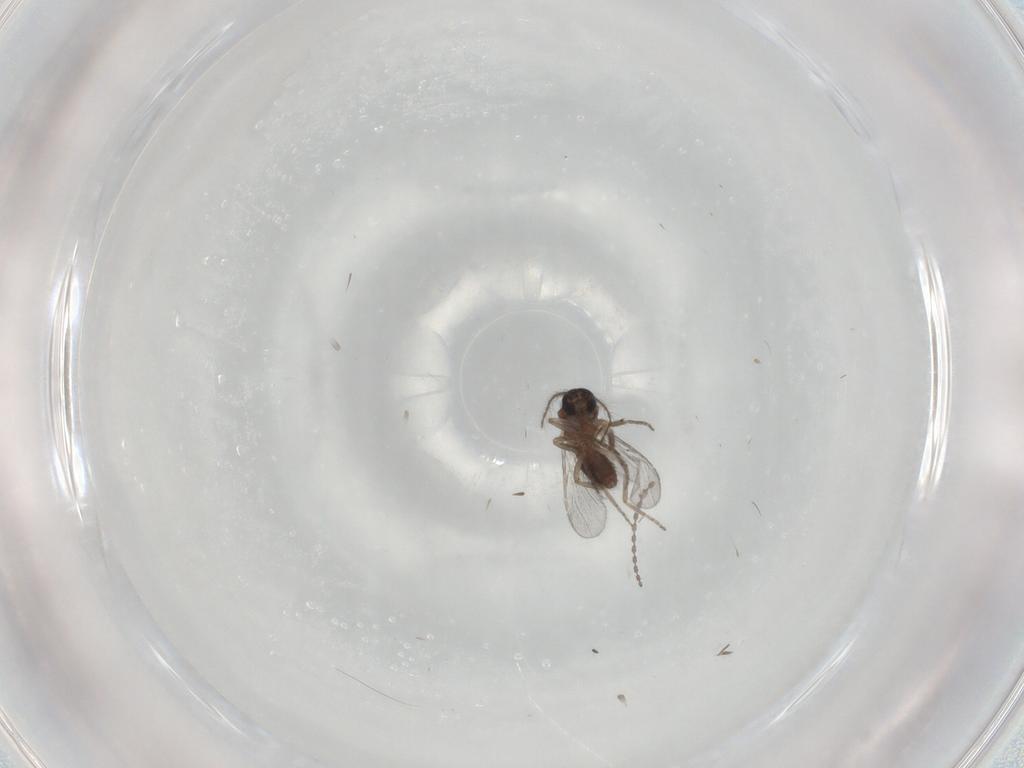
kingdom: Animalia
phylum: Arthropoda
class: Insecta
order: Diptera
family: Ceratopogonidae
